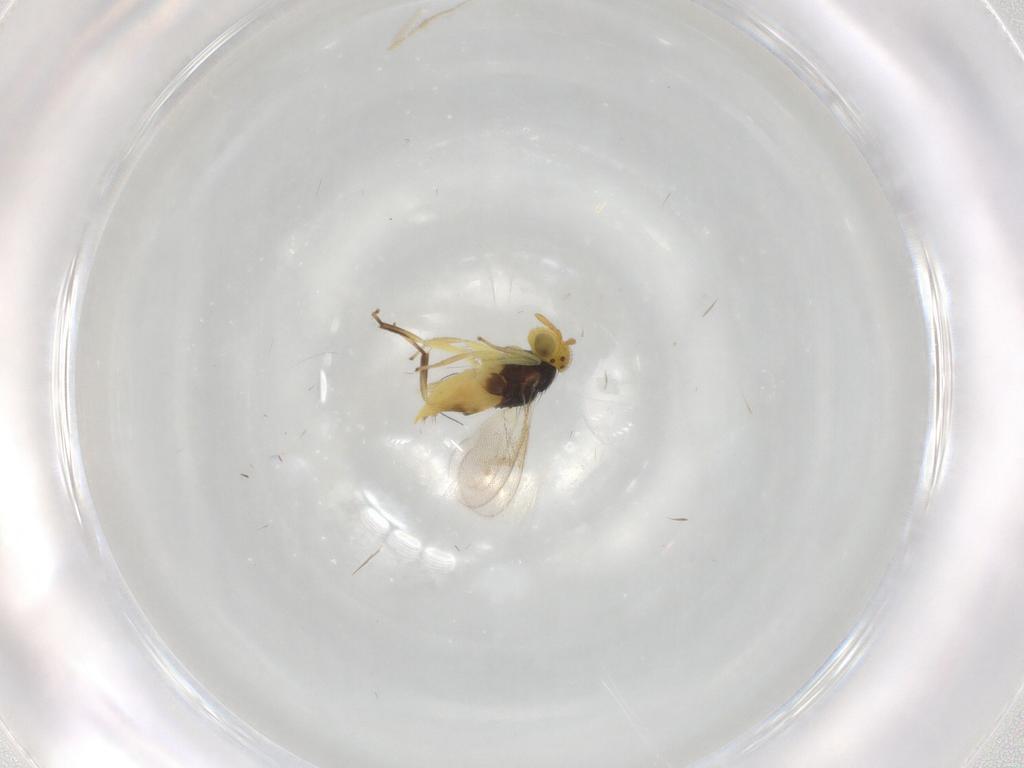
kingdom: Animalia
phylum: Arthropoda
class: Insecta
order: Hymenoptera
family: Aphelinidae
